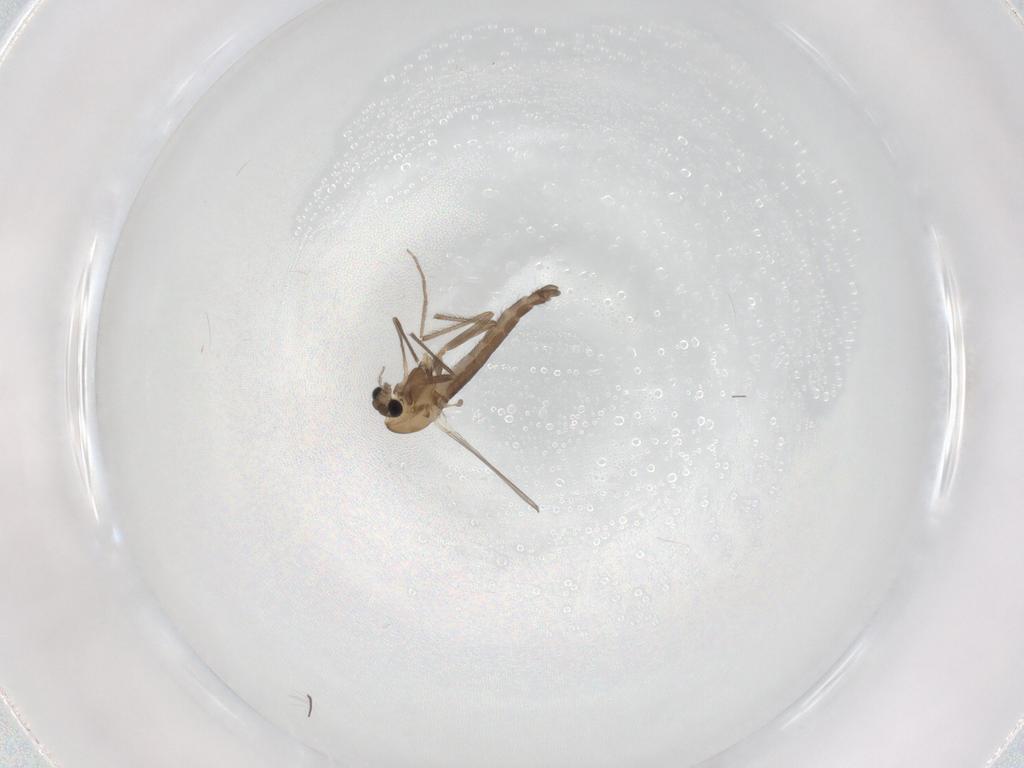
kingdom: Animalia
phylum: Arthropoda
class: Insecta
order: Diptera
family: Chironomidae
